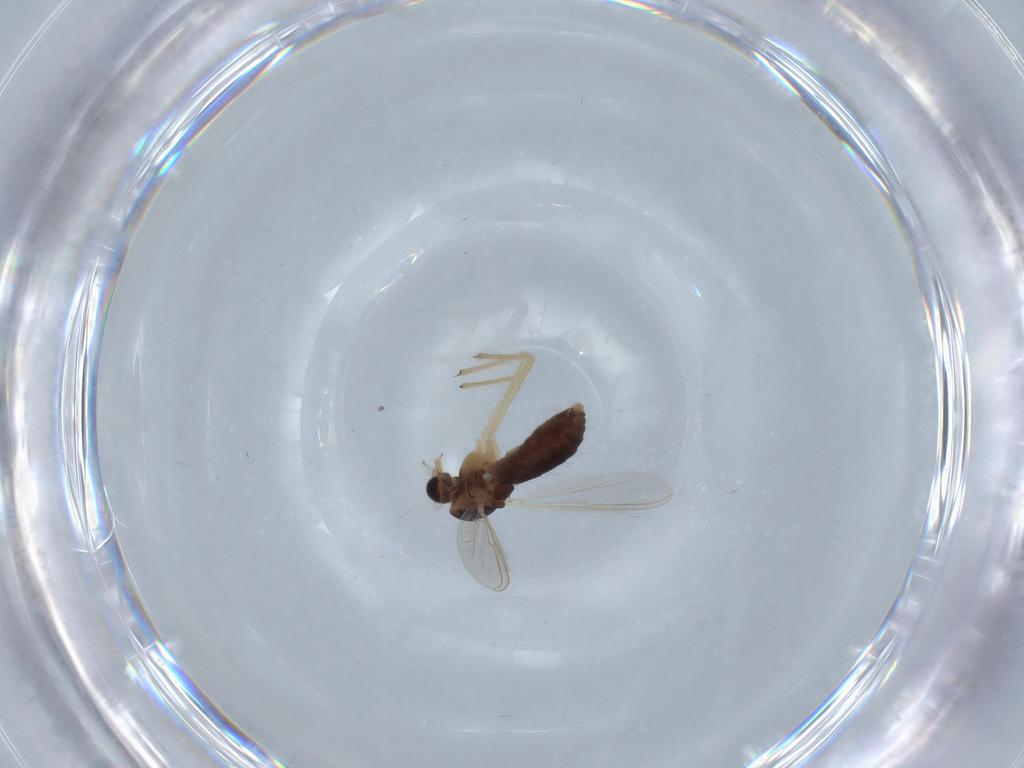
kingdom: Animalia
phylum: Arthropoda
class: Insecta
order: Diptera
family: Chironomidae
